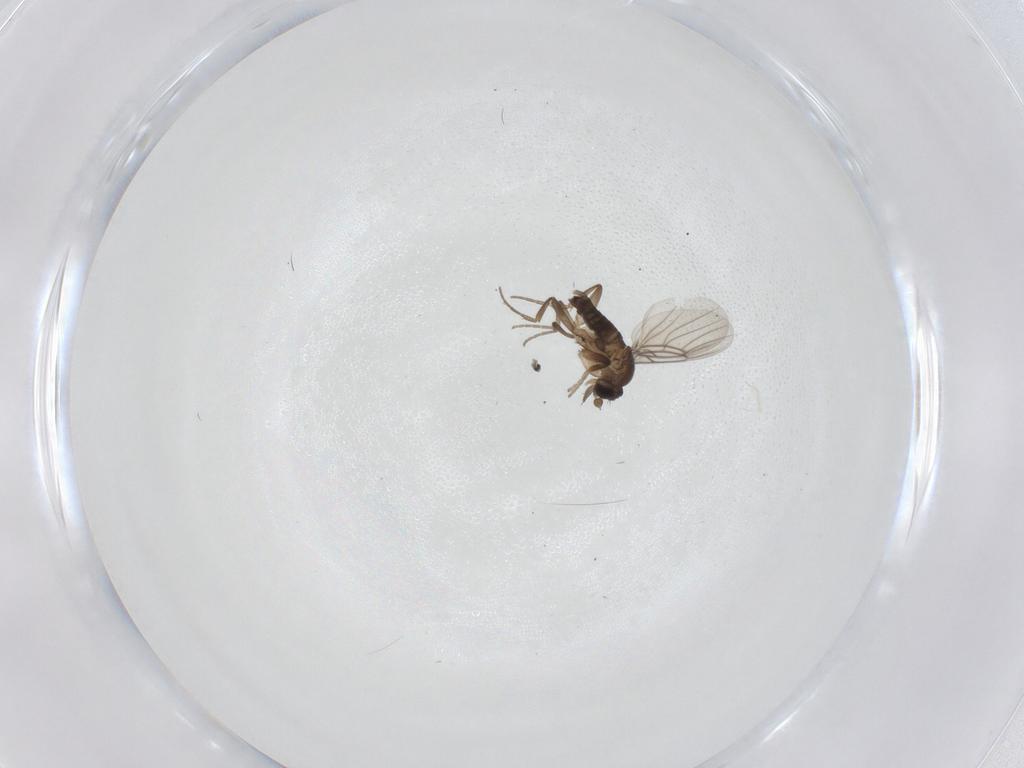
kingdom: Animalia
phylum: Arthropoda
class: Insecta
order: Diptera
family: Phoridae
